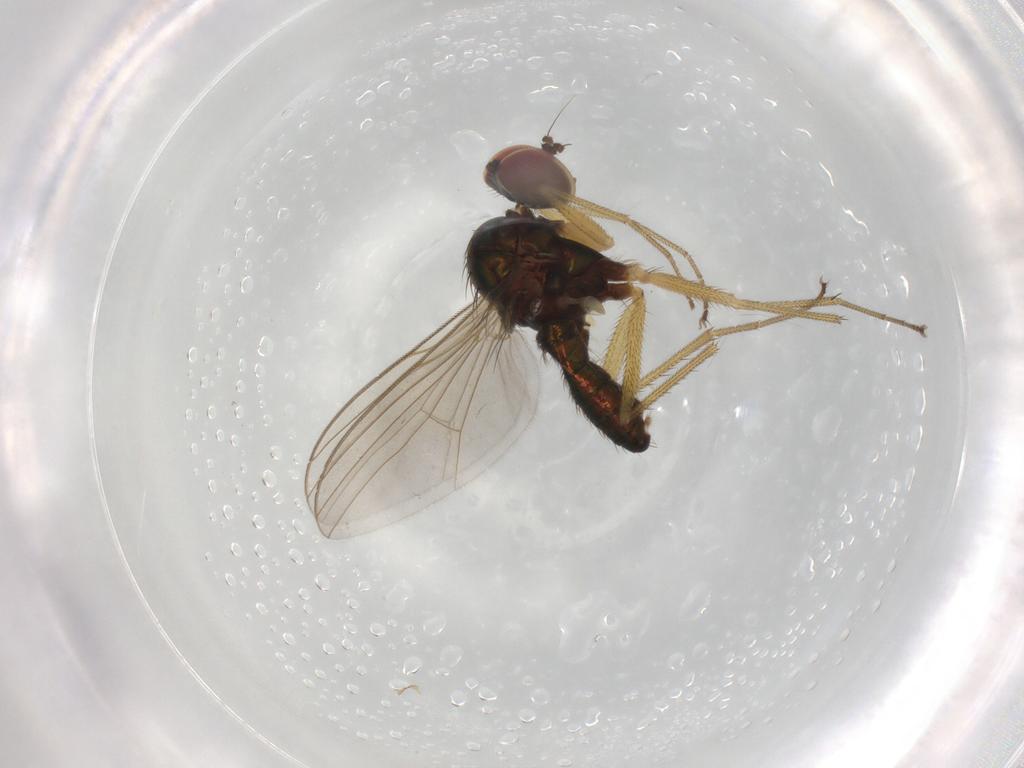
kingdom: Animalia
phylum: Arthropoda
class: Insecta
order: Diptera
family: Dolichopodidae
